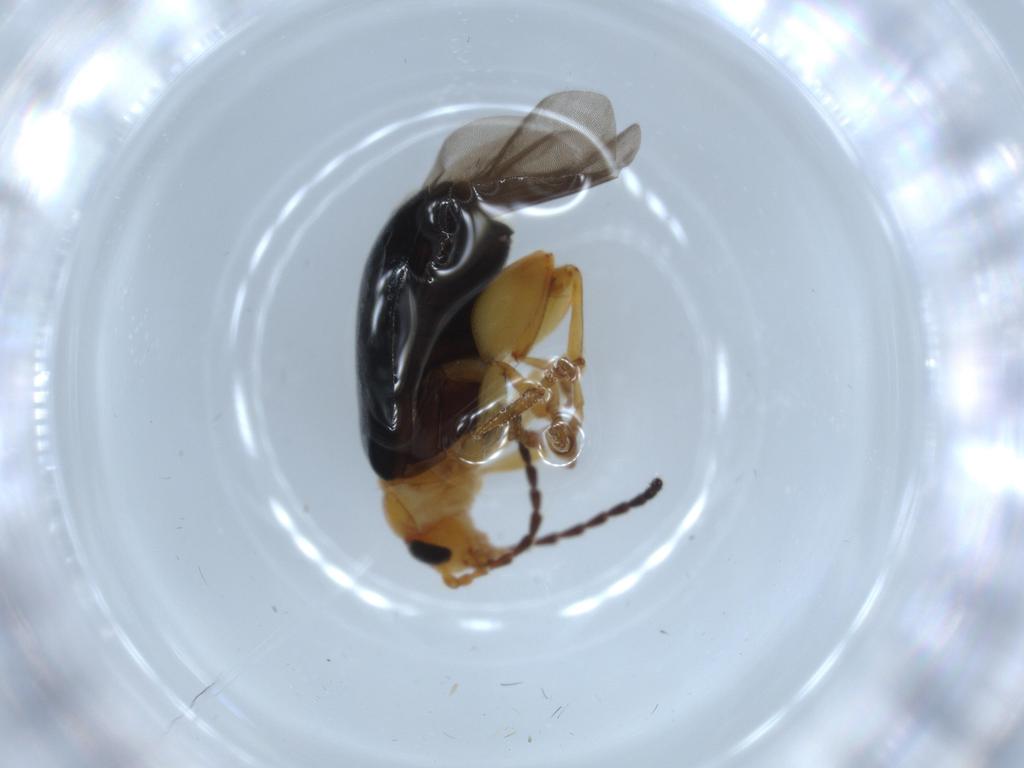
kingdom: Animalia
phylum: Arthropoda
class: Insecta
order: Coleoptera
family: Chrysomelidae
